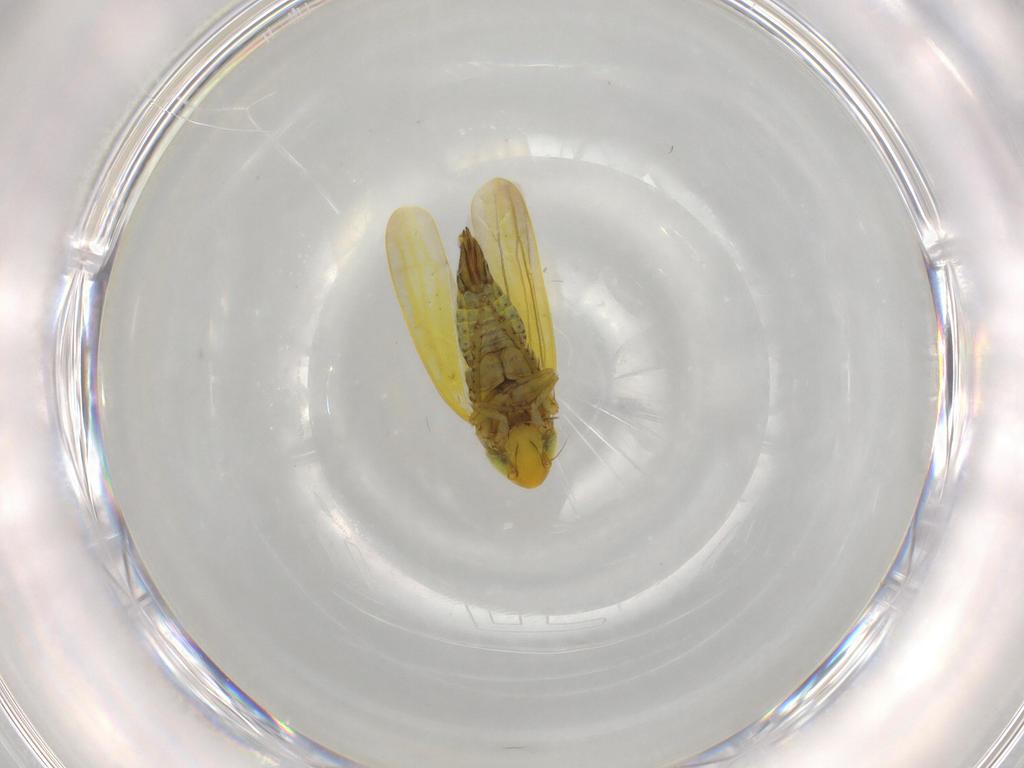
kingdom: Animalia
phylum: Arthropoda
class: Insecta
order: Hemiptera
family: Cicadellidae
